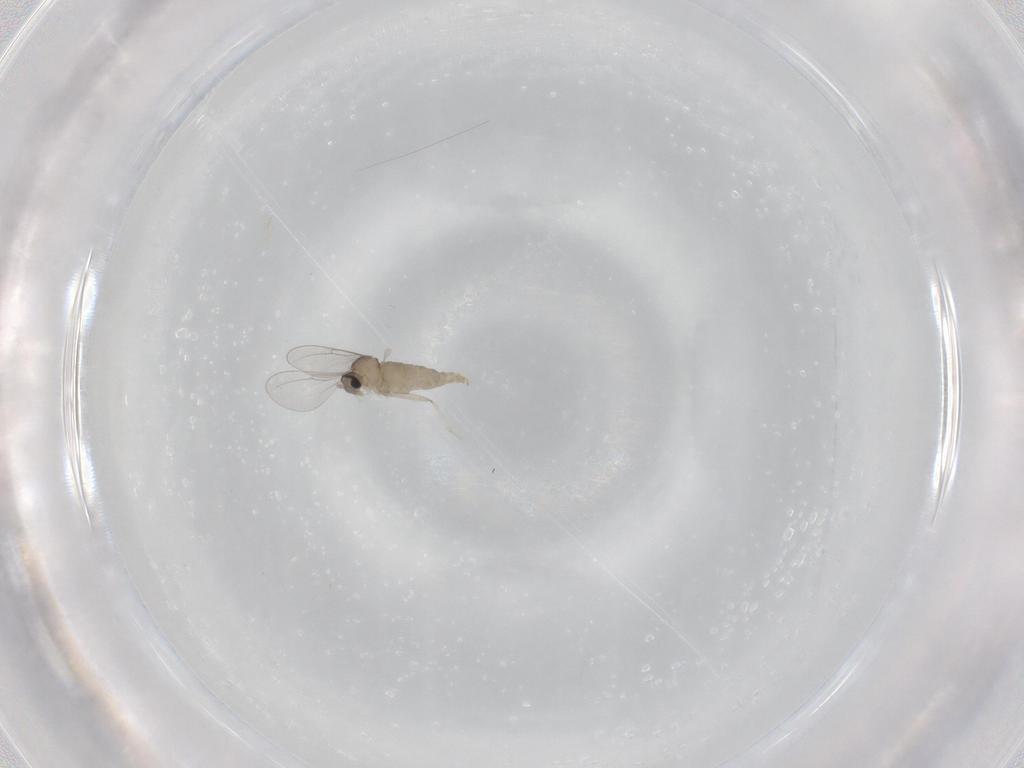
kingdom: Animalia
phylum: Arthropoda
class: Insecta
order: Diptera
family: Cecidomyiidae
